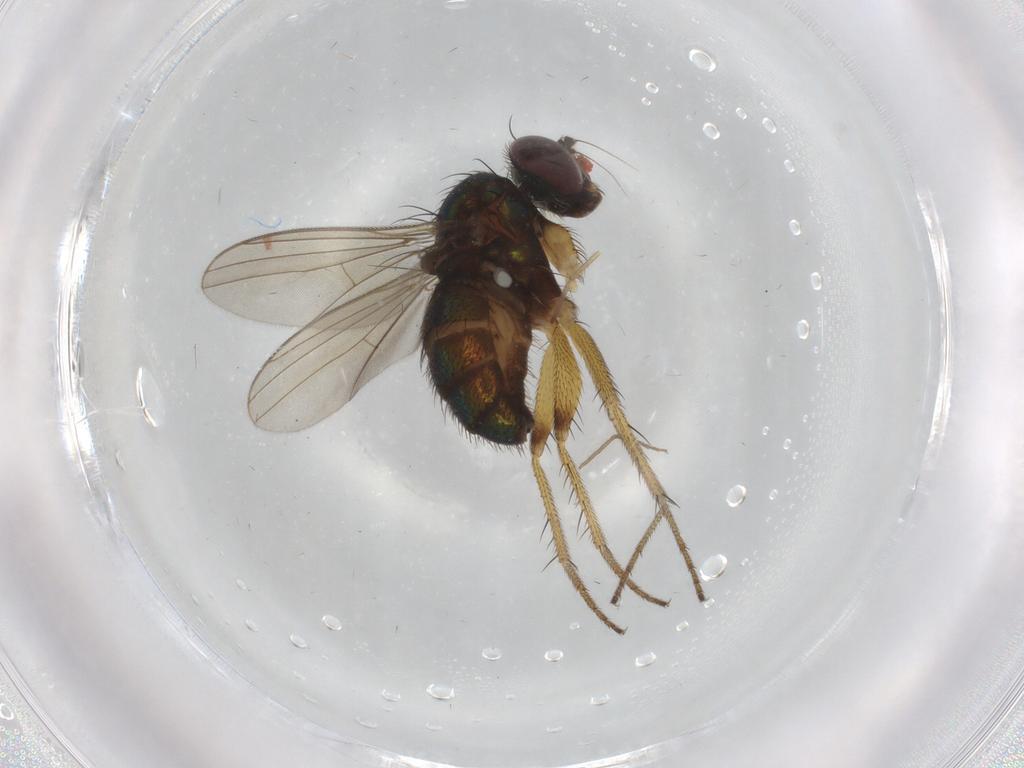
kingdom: Animalia
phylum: Arthropoda
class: Insecta
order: Diptera
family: Dolichopodidae
